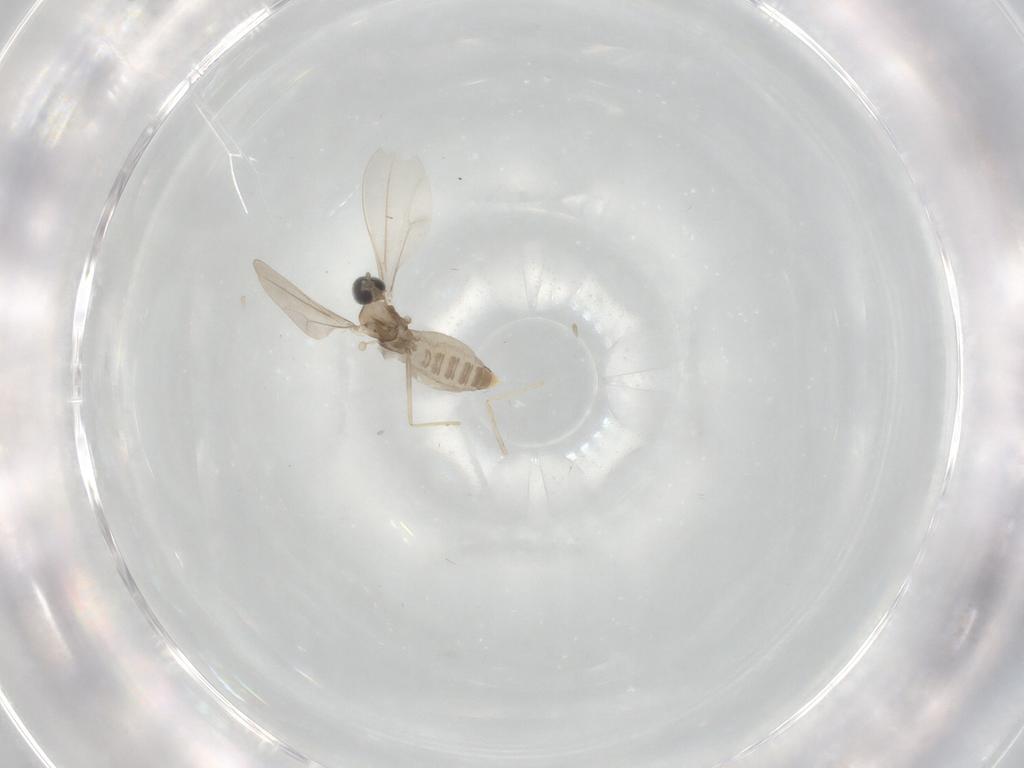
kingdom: Animalia
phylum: Arthropoda
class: Insecta
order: Diptera
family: Cecidomyiidae
